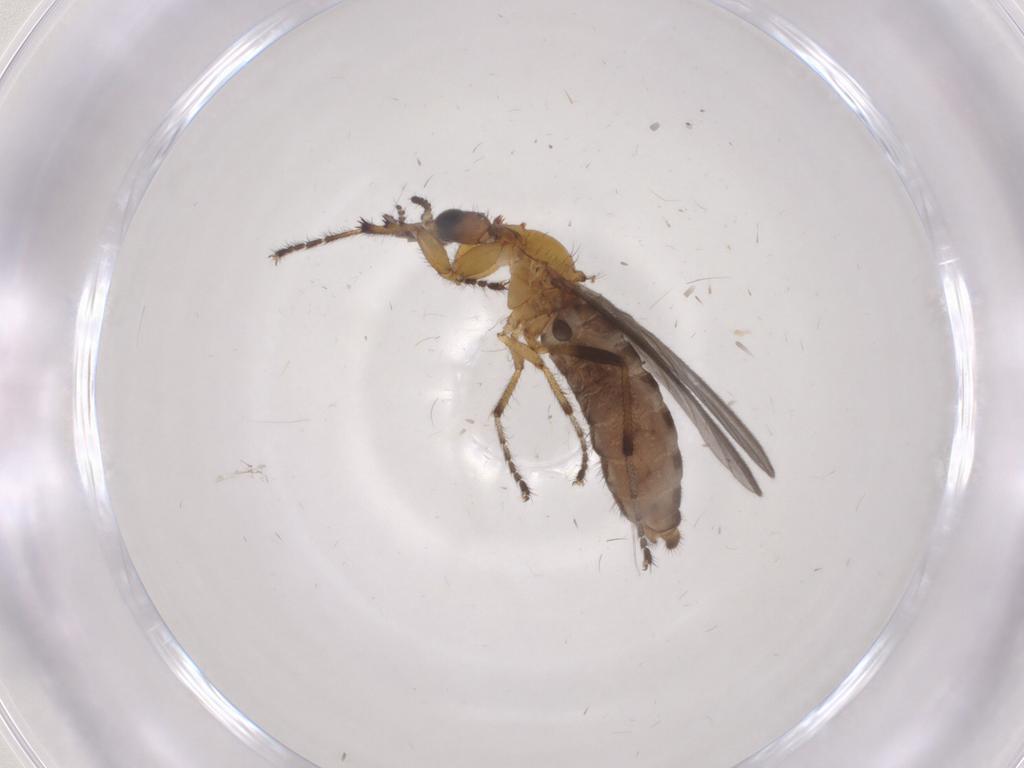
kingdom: Animalia
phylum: Arthropoda
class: Insecta
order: Diptera
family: Bibionidae
